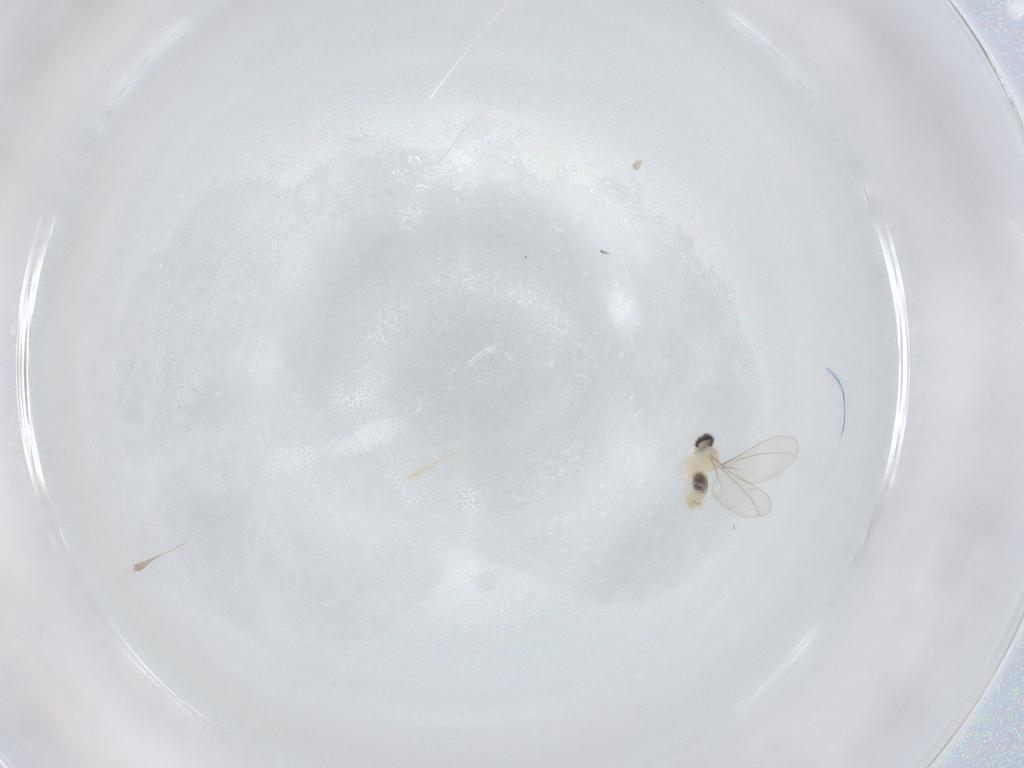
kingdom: Animalia
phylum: Arthropoda
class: Insecta
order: Diptera
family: Cecidomyiidae
